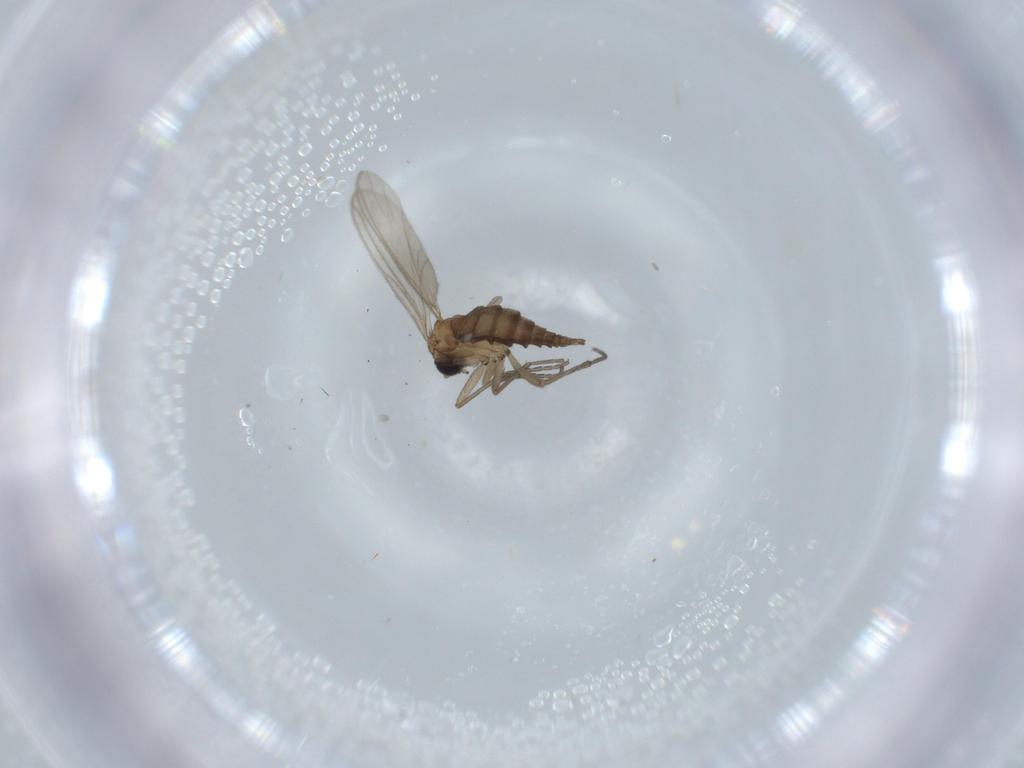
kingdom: Animalia
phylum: Arthropoda
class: Insecta
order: Diptera
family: Sciaridae
